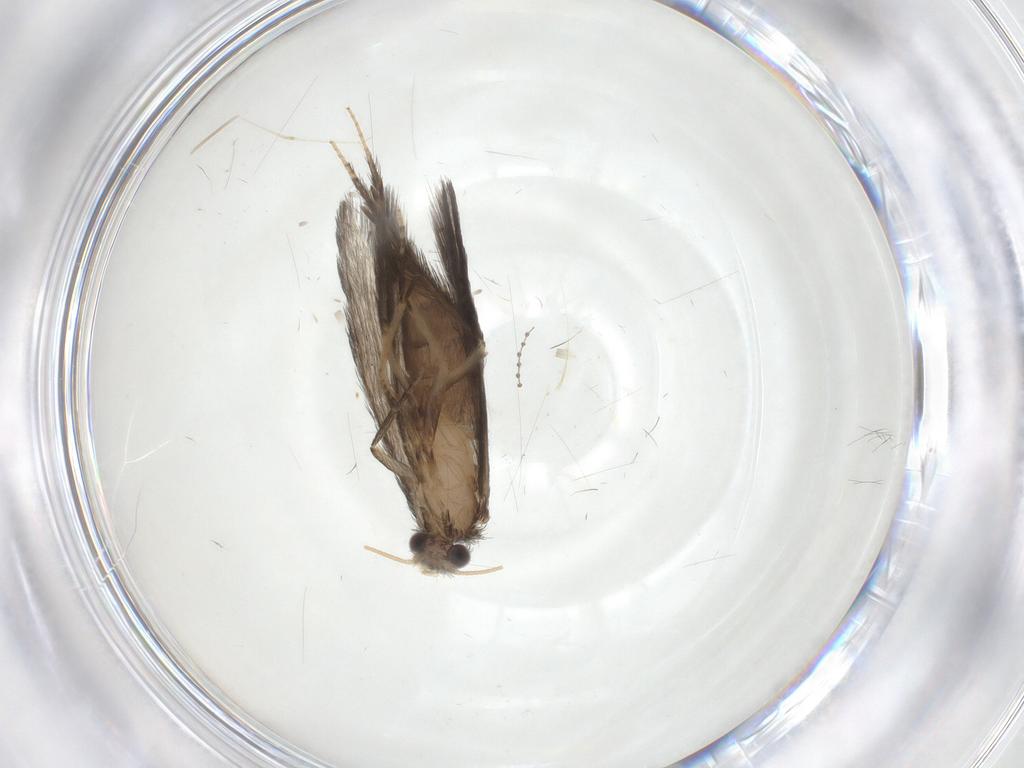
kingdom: Animalia
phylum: Arthropoda
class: Insecta
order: Trichoptera
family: Hydroptilidae
